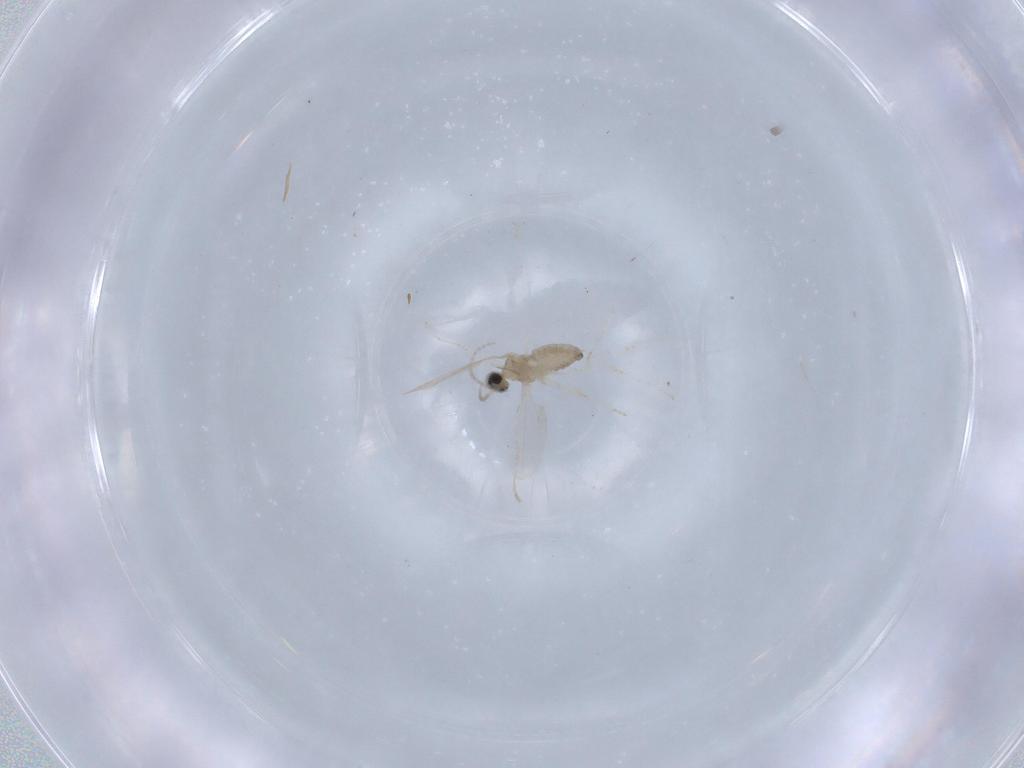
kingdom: Animalia
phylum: Arthropoda
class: Insecta
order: Diptera
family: Cecidomyiidae
